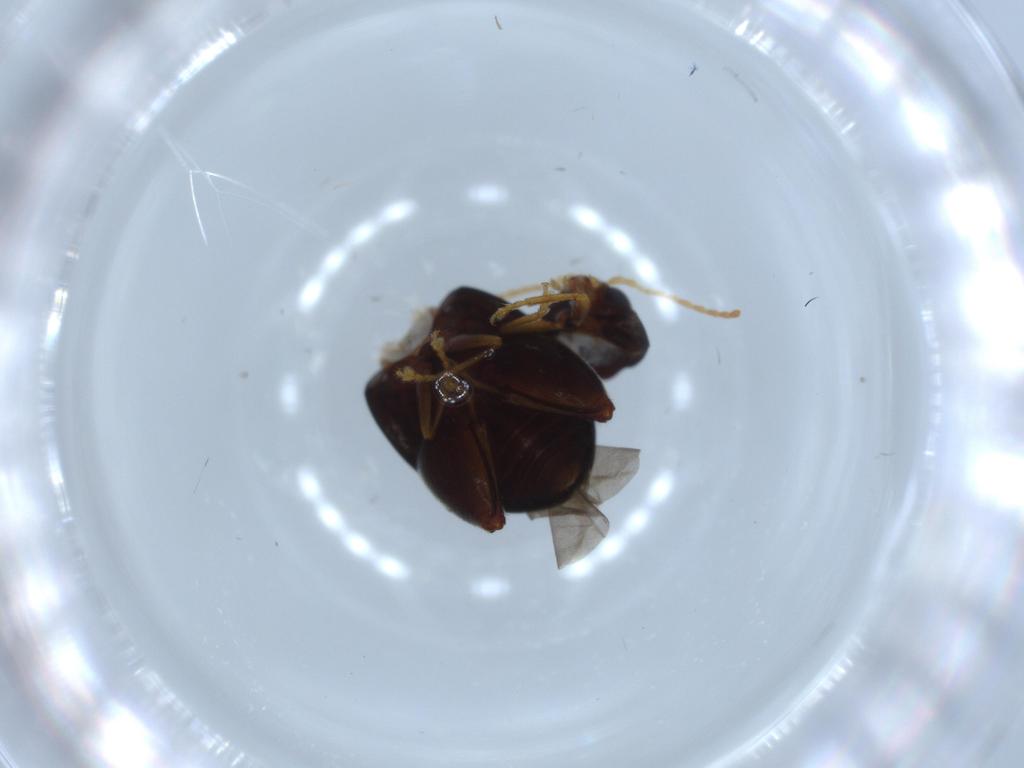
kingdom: Animalia
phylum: Arthropoda
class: Insecta
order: Coleoptera
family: Chrysomelidae
